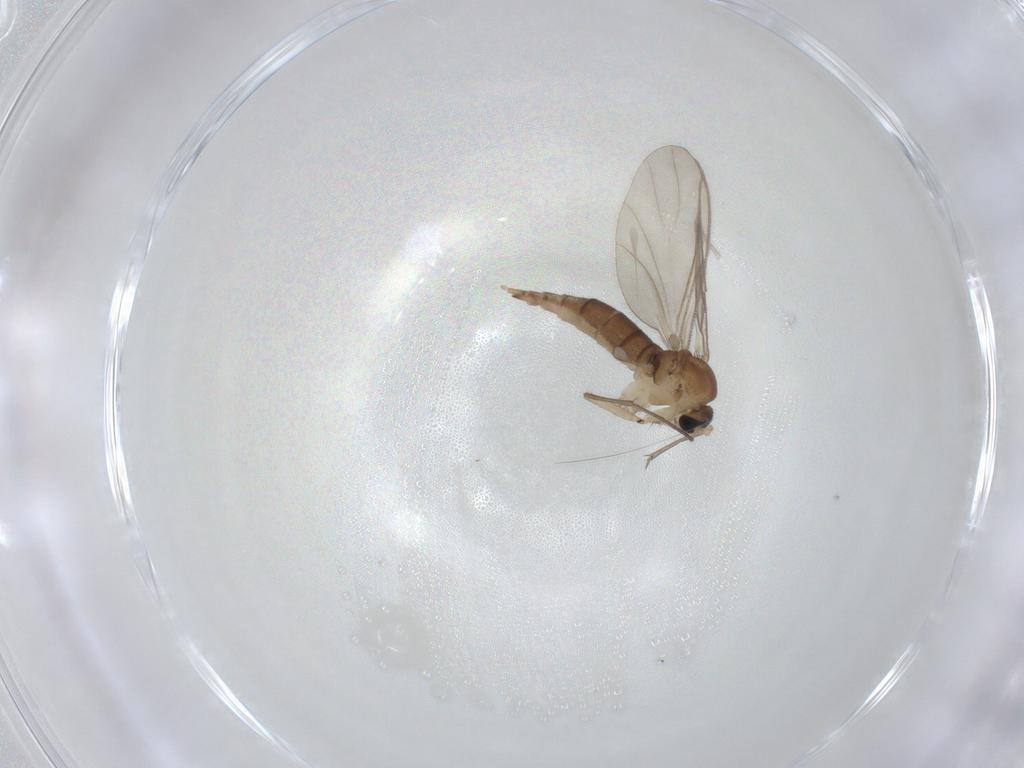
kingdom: Animalia
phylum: Arthropoda
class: Insecta
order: Diptera
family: Sciaridae
